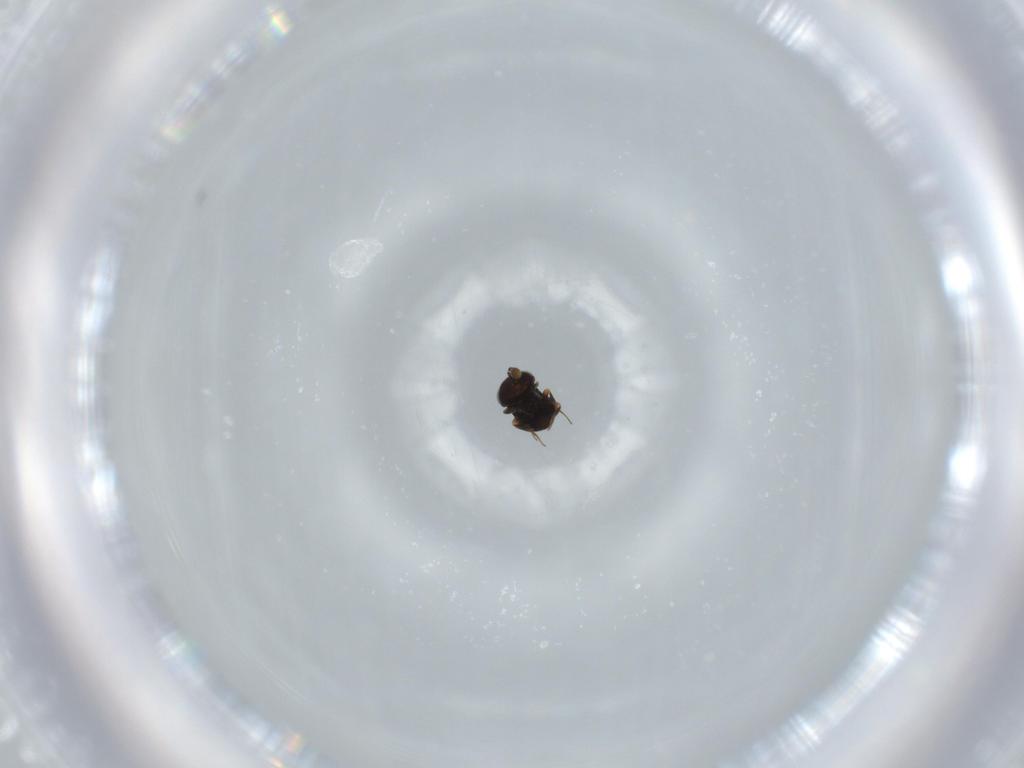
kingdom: Animalia
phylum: Arthropoda
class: Insecta
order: Hymenoptera
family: Scelionidae
